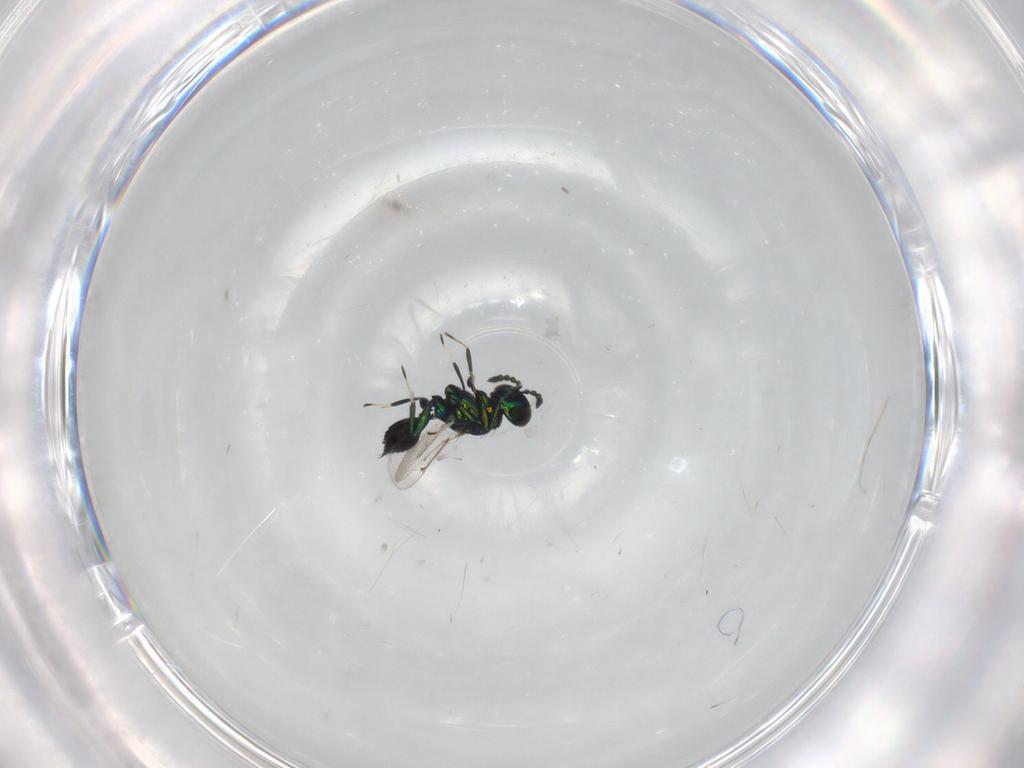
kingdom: Animalia
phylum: Arthropoda
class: Insecta
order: Hymenoptera
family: Eulophidae
